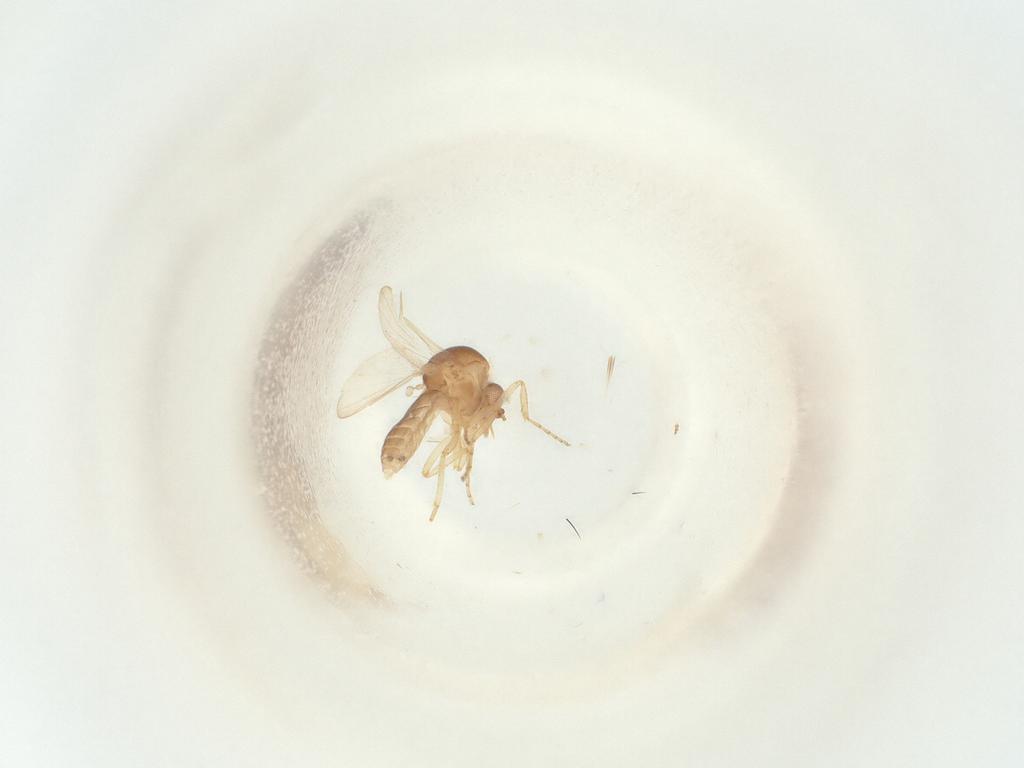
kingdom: Animalia
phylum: Arthropoda
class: Insecta
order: Diptera
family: Ceratopogonidae
